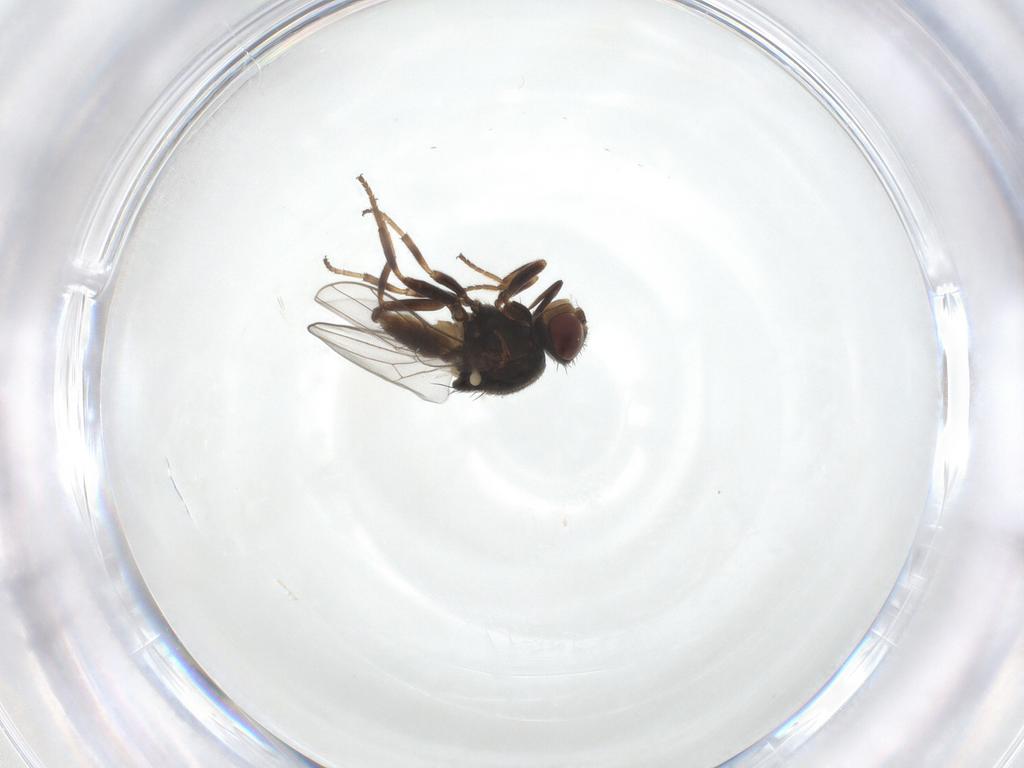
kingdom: Animalia
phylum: Arthropoda
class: Insecta
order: Diptera
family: Chloropidae
